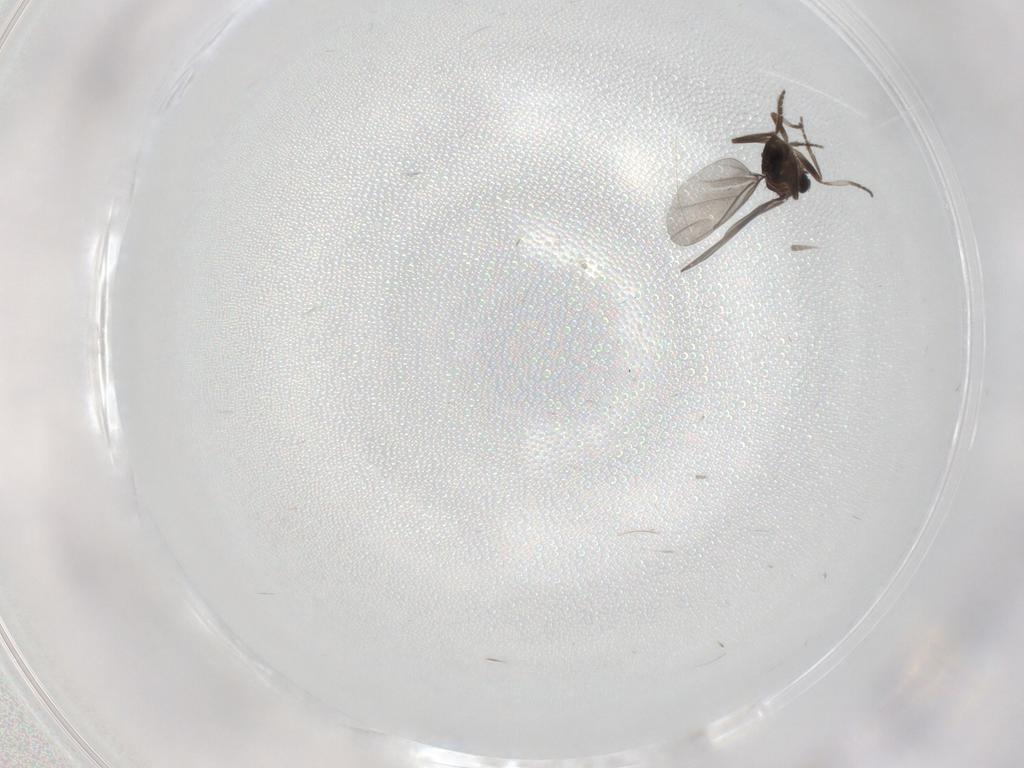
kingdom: Animalia
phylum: Arthropoda
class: Insecta
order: Diptera
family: Phoridae
